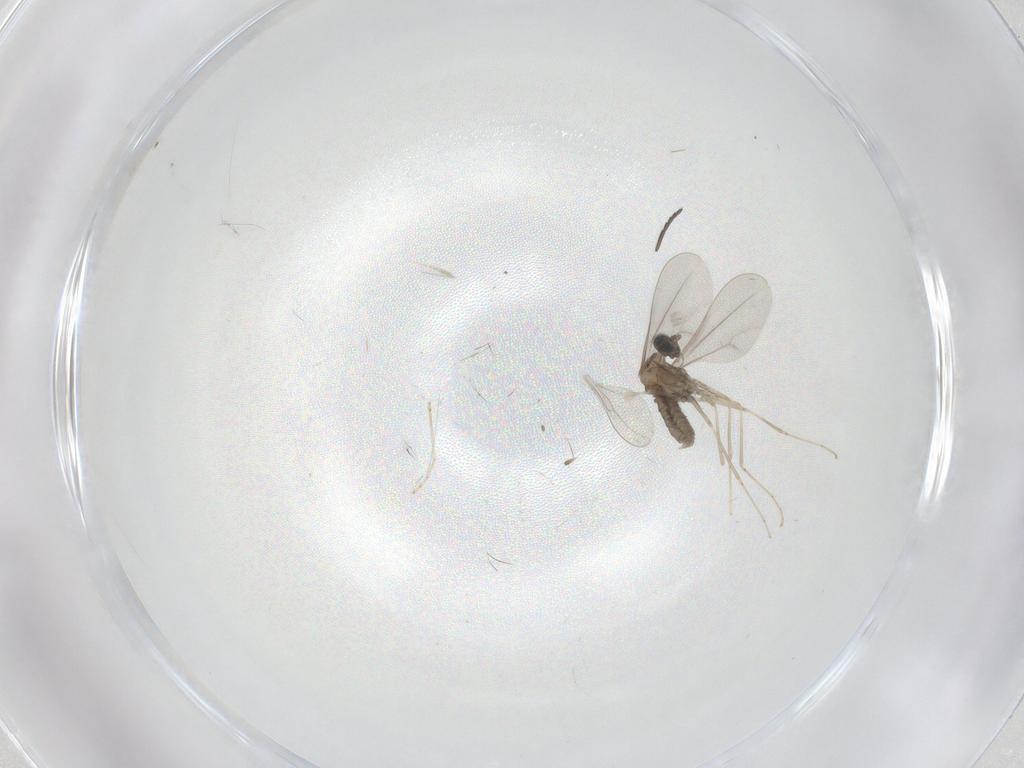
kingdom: Animalia
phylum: Arthropoda
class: Insecta
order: Diptera
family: Cecidomyiidae
